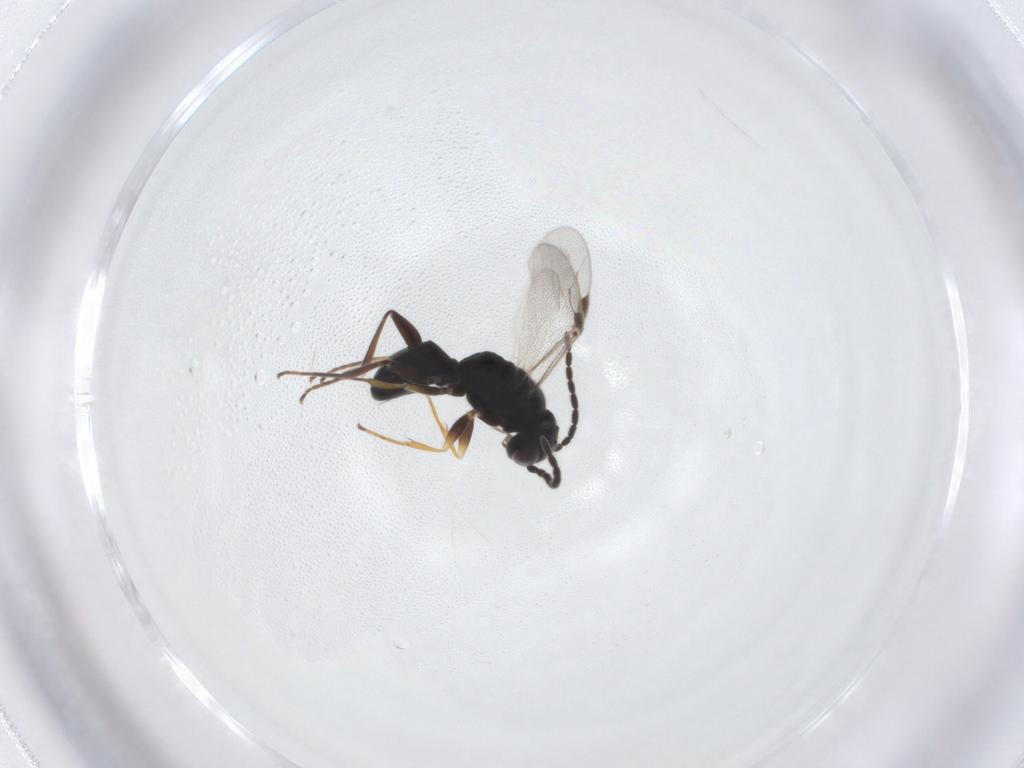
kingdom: Animalia
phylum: Arthropoda
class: Insecta
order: Hymenoptera
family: Dryinidae
